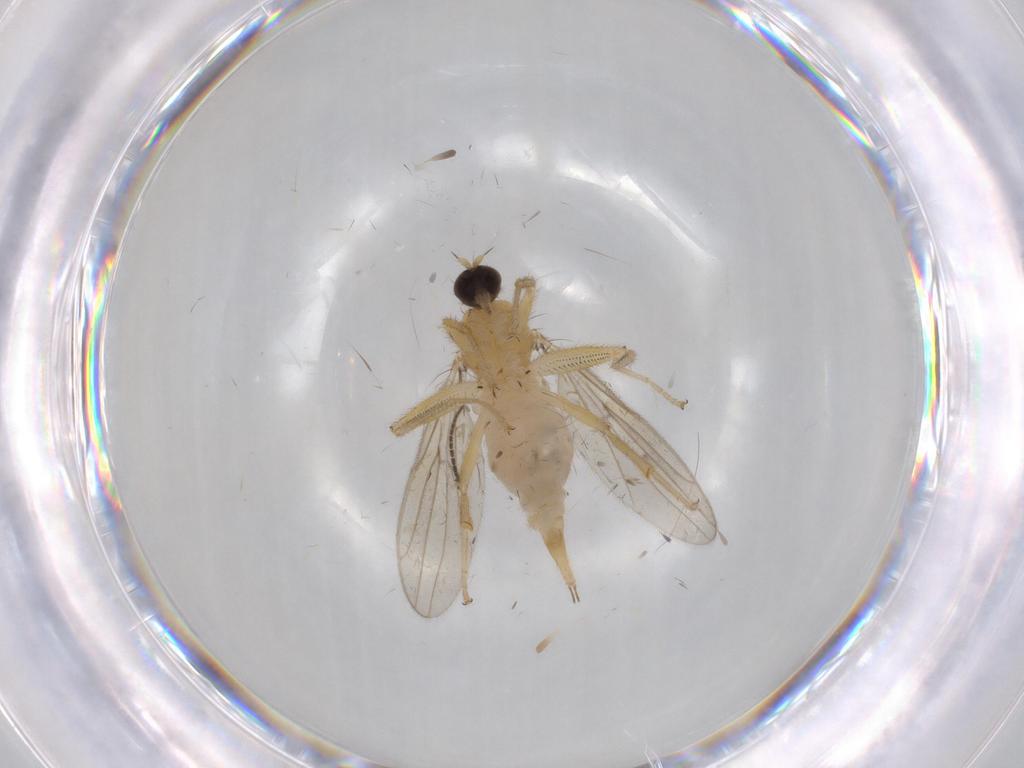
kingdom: Animalia
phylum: Arthropoda
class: Insecta
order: Diptera
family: Hybotidae
